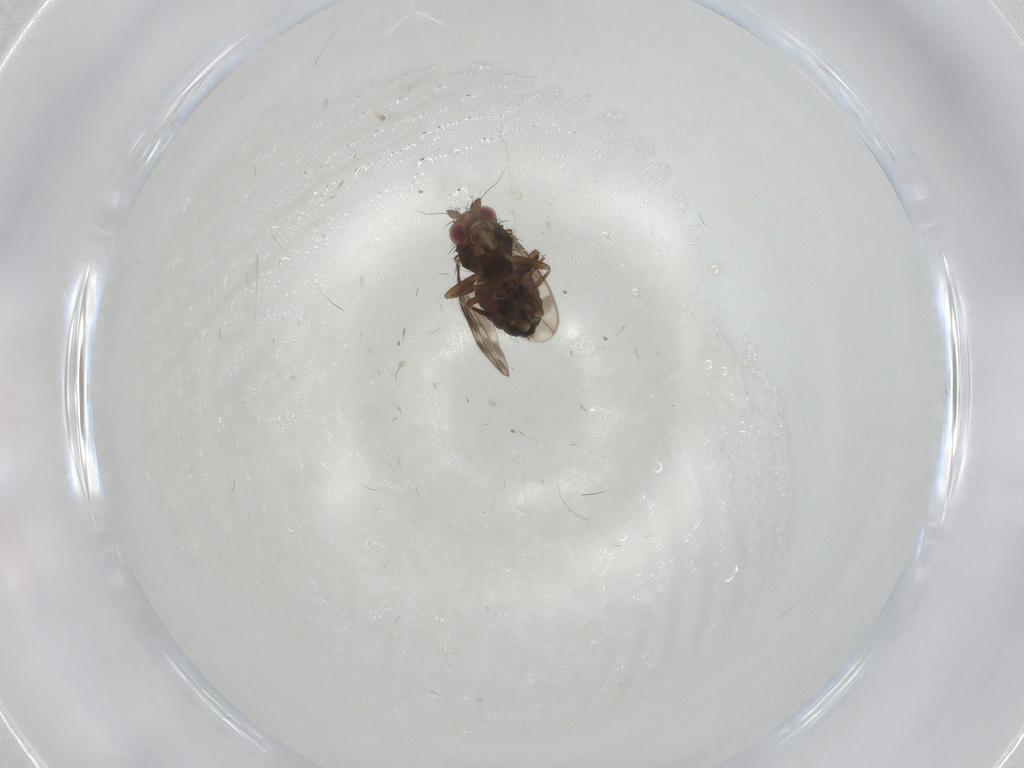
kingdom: Animalia
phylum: Arthropoda
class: Insecta
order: Diptera
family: Sphaeroceridae
